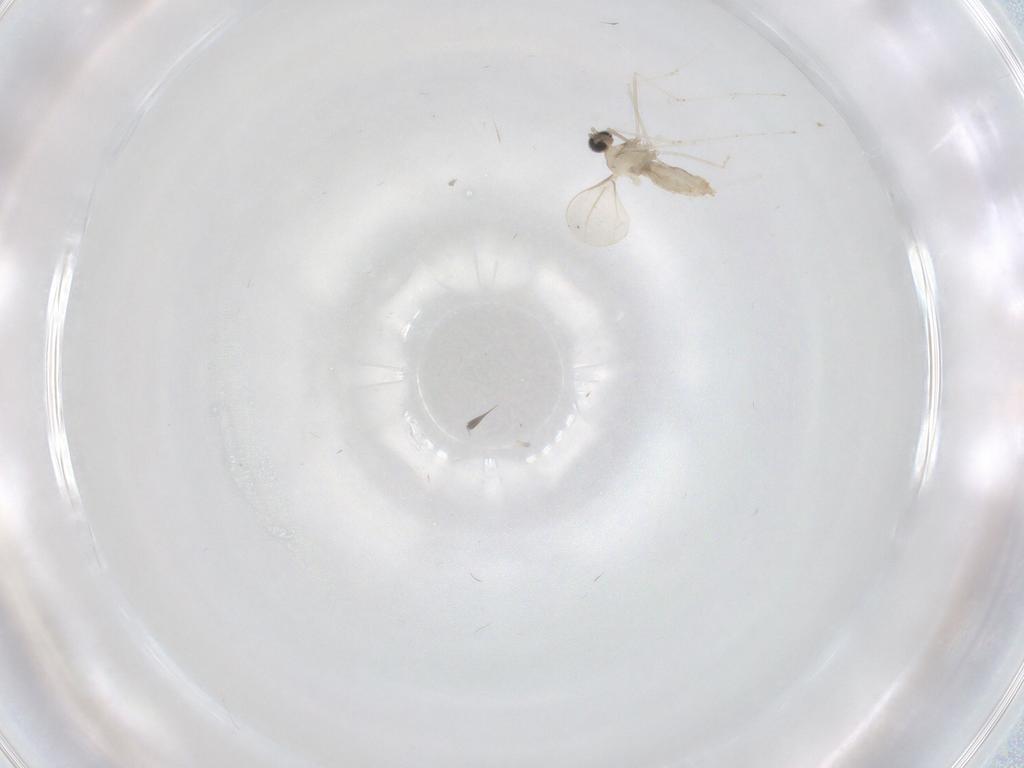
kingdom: Animalia
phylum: Arthropoda
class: Insecta
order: Diptera
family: Cecidomyiidae
